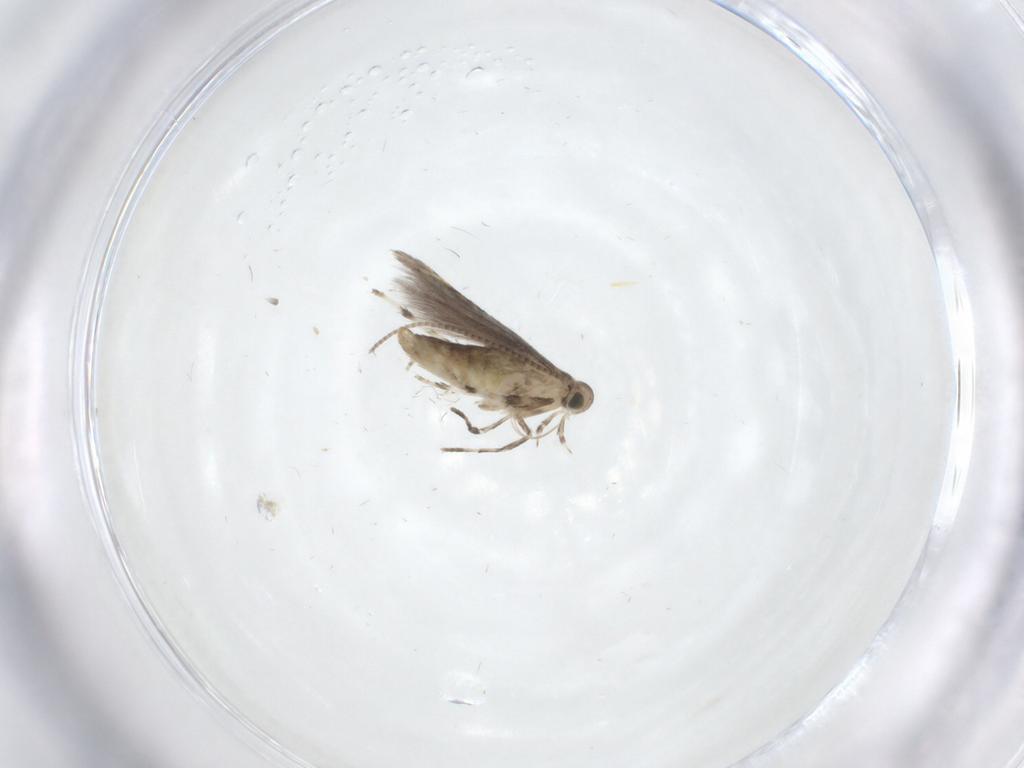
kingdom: Animalia
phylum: Arthropoda
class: Insecta
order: Lepidoptera
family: Gracillariidae
